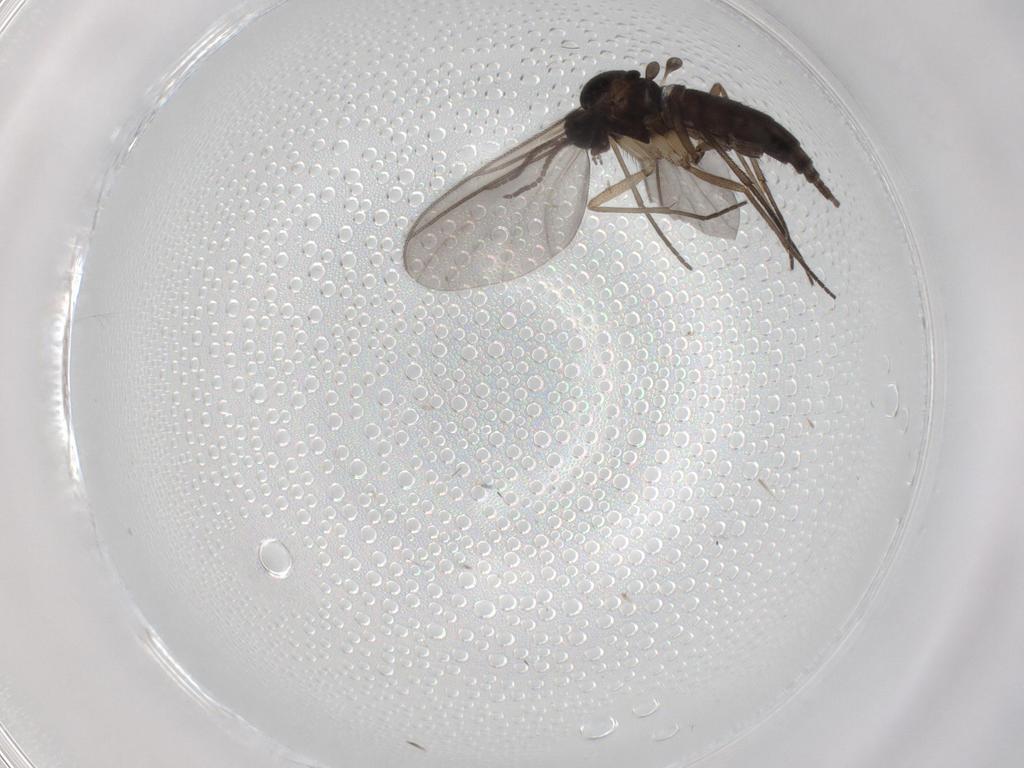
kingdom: Animalia
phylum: Arthropoda
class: Insecta
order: Diptera
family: Sciaridae
